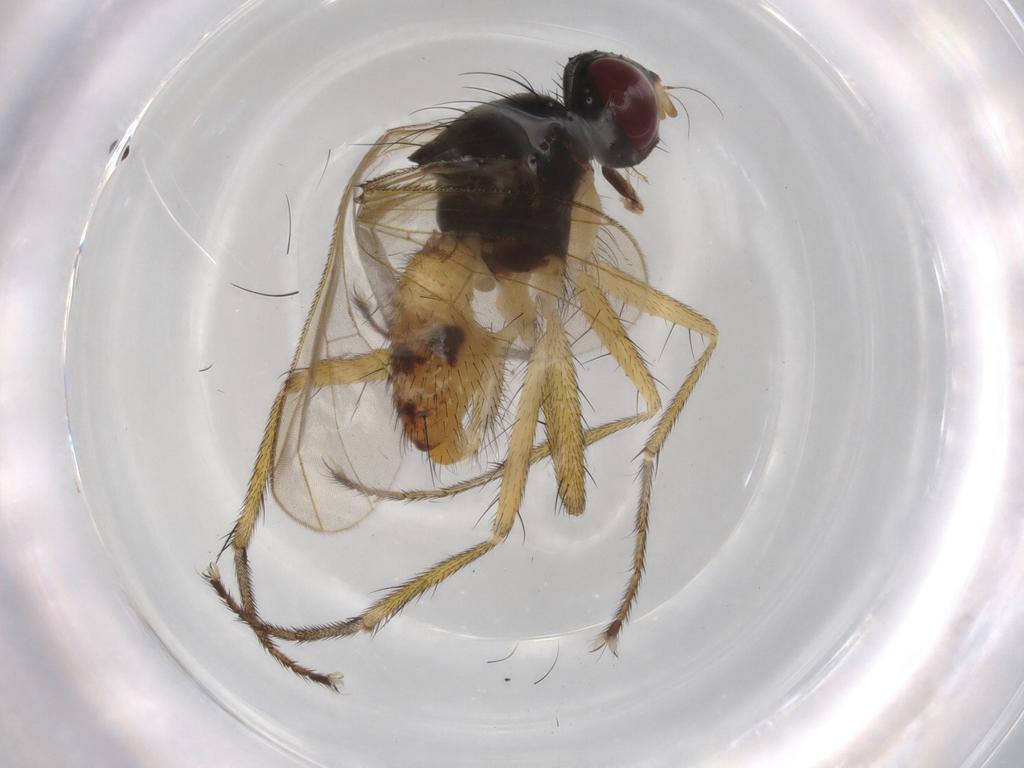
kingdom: Animalia
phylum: Arthropoda
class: Insecta
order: Diptera
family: Muscidae
